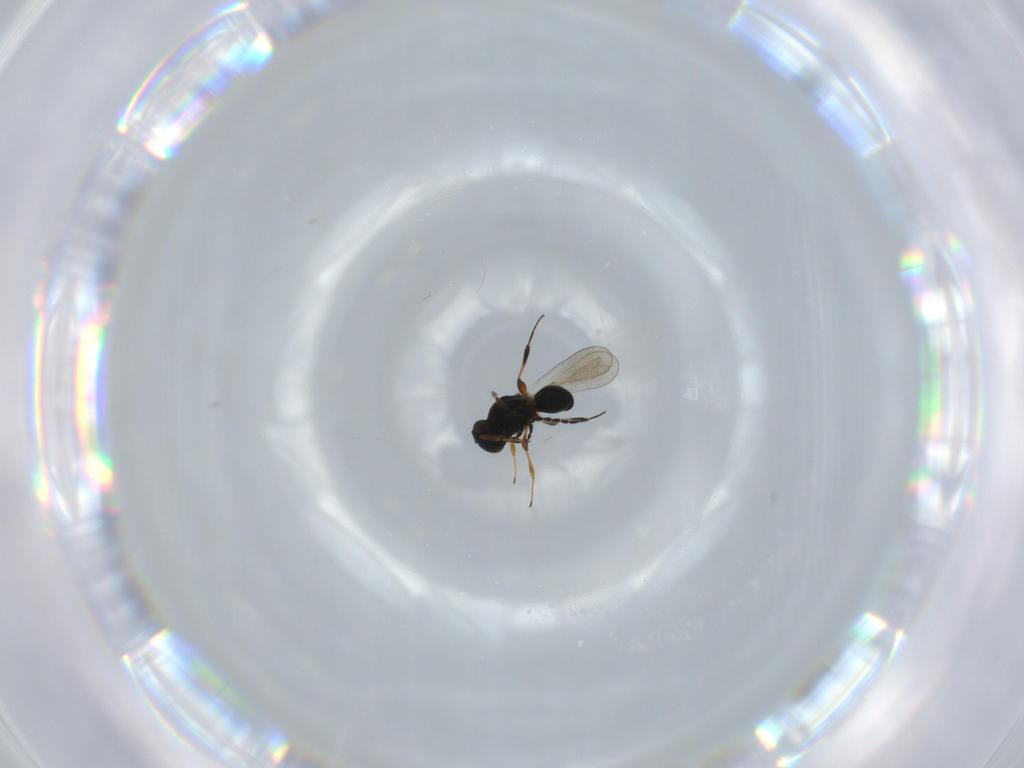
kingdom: Animalia
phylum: Arthropoda
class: Insecta
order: Hymenoptera
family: Platygastridae
